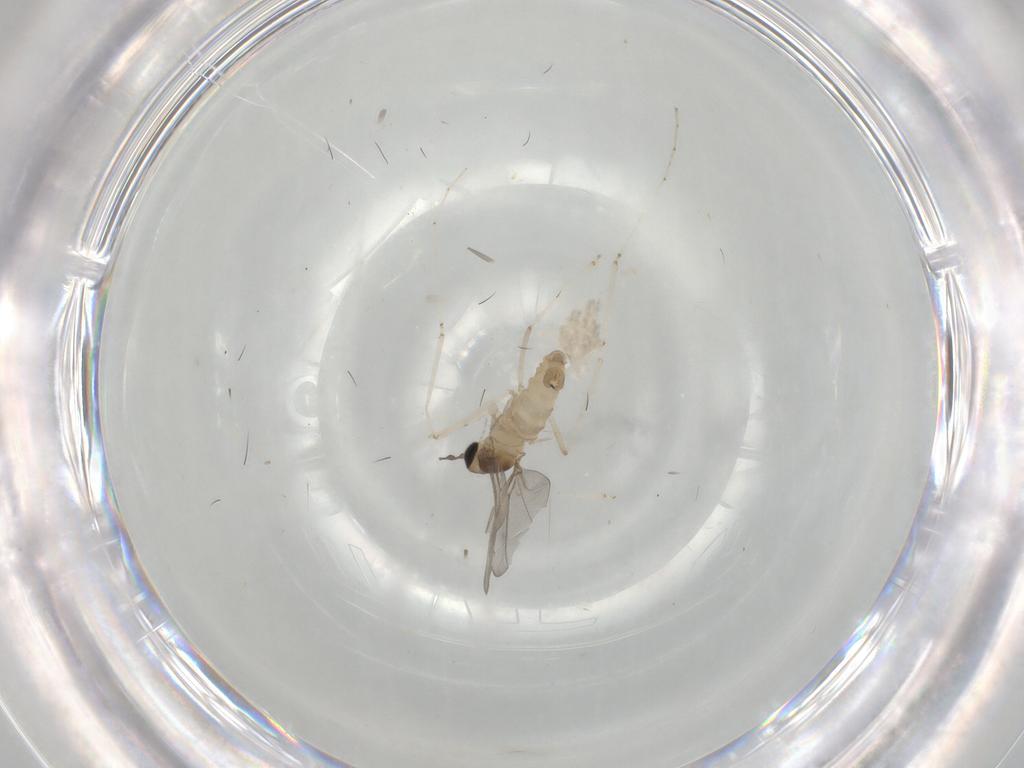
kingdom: Animalia
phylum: Arthropoda
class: Insecta
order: Diptera
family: Cecidomyiidae
